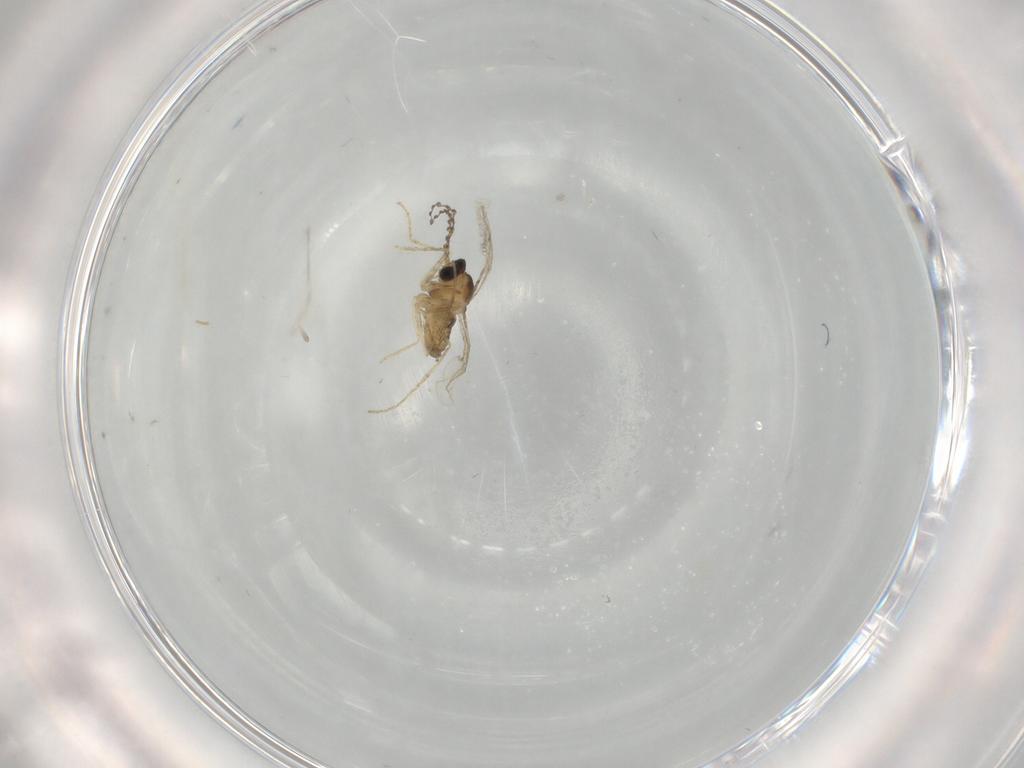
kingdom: Animalia
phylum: Arthropoda
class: Insecta
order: Diptera
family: Cecidomyiidae
